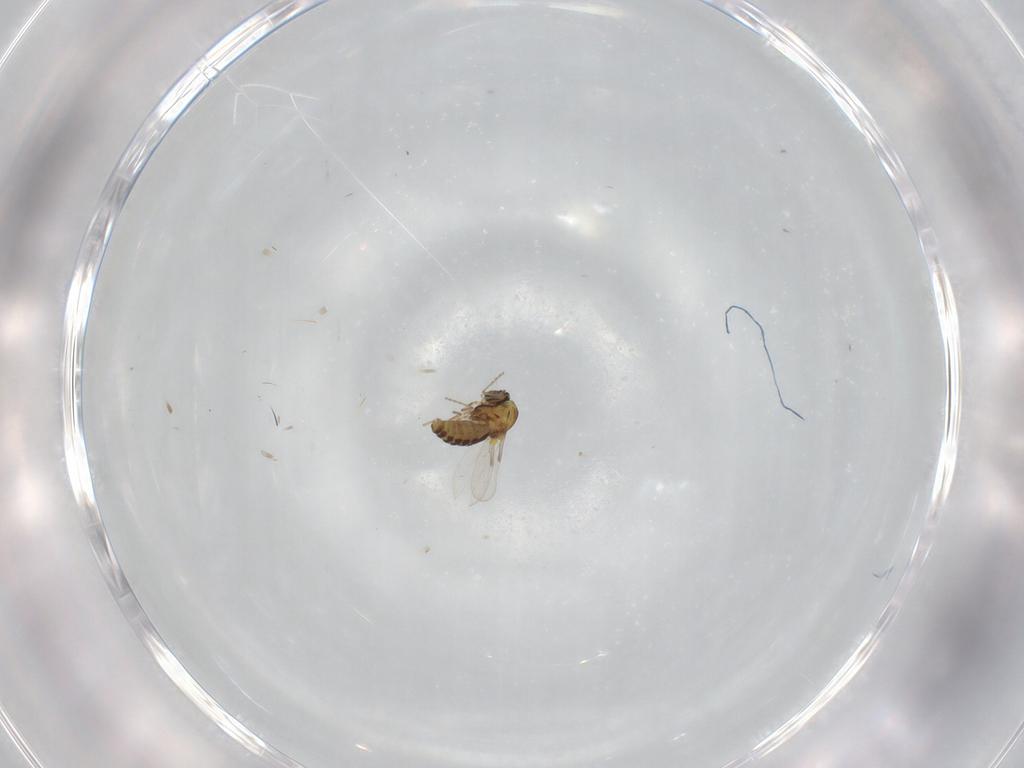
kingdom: Animalia
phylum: Arthropoda
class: Insecta
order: Diptera
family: Ceratopogonidae
